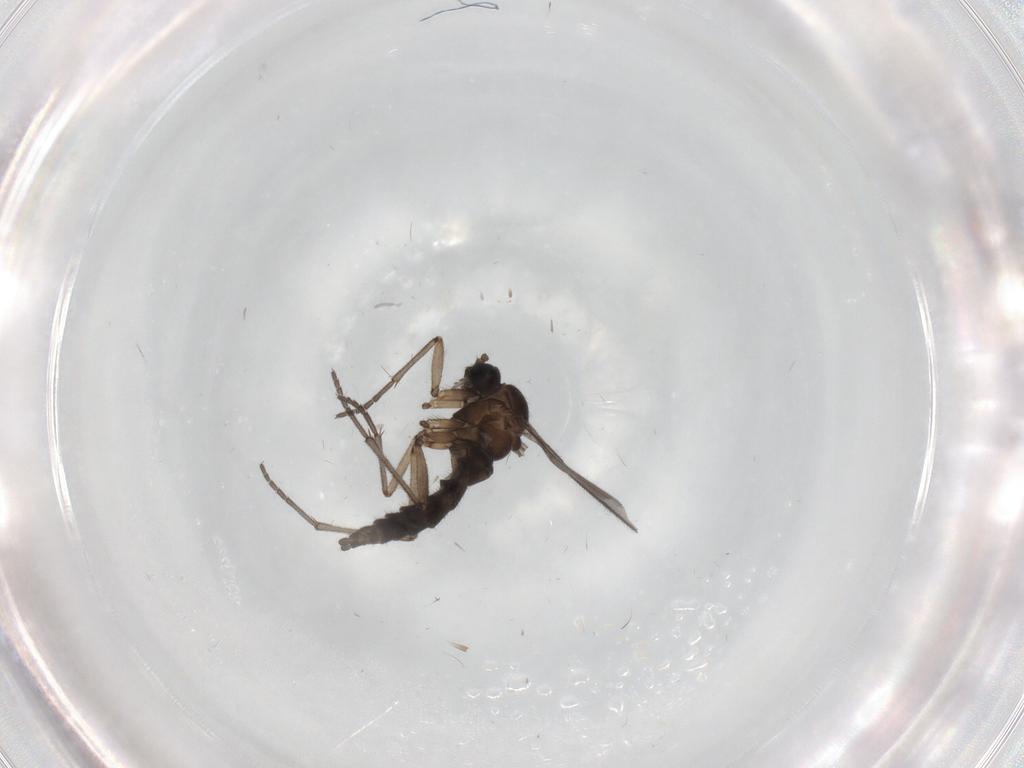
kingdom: Animalia
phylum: Arthropoda
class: Insecta
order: Diptera
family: Sciaridae
